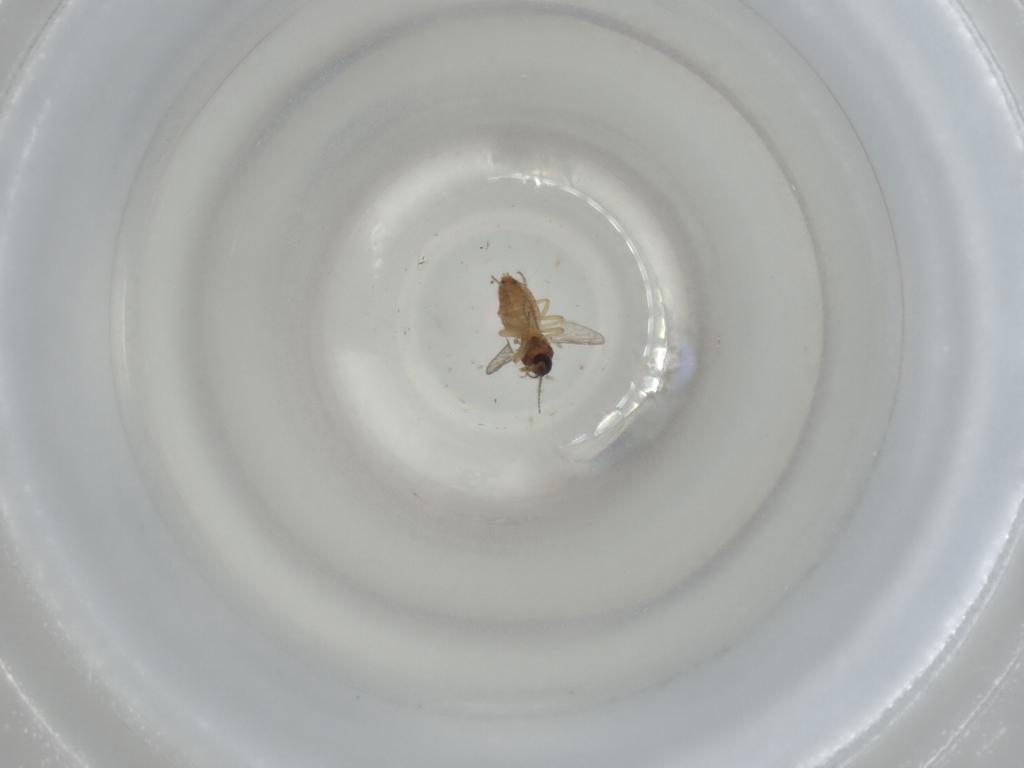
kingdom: Animalia
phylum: Arthropoda
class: Insecta
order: Diptera
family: Ceratopogonidae
